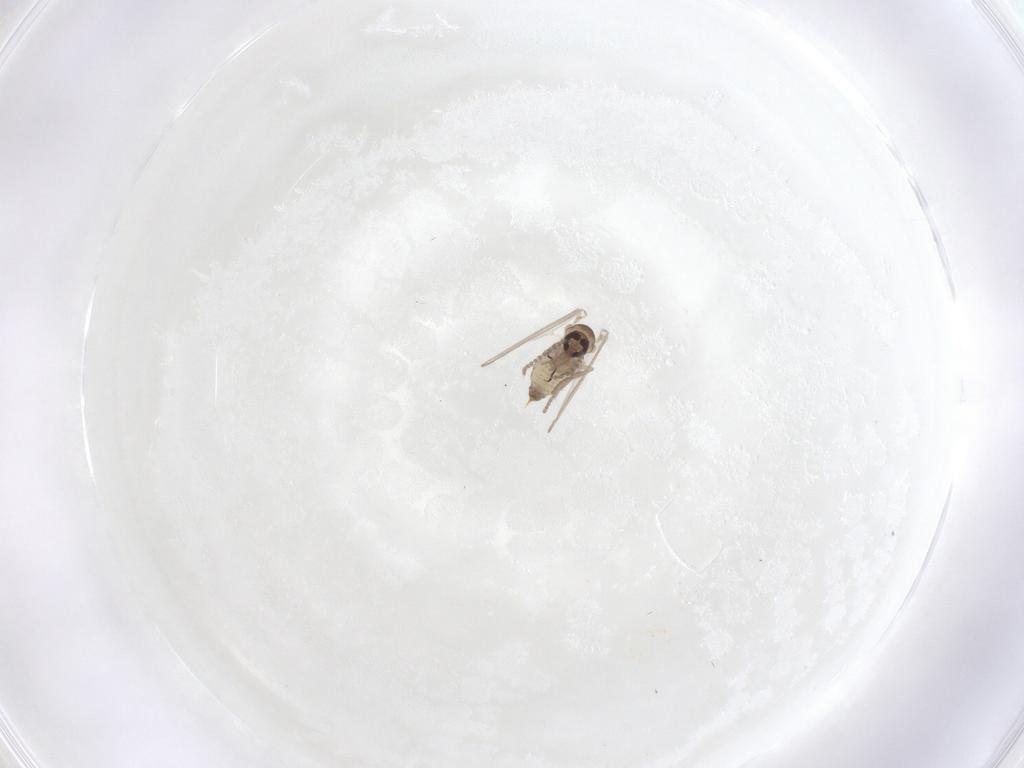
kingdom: Animalia
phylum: Arthropoda
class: Insecta
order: Diptera
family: Psychodidae
